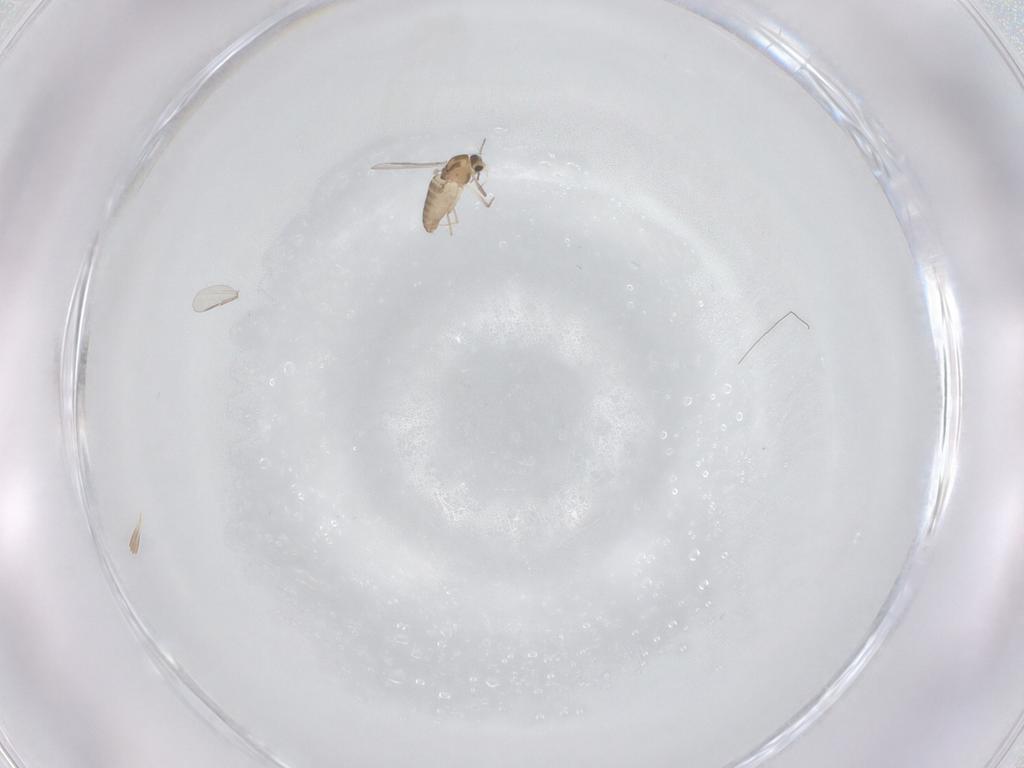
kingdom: Animalia
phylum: Arthropoda
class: Insecta
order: Diptera
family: Chironomidae
